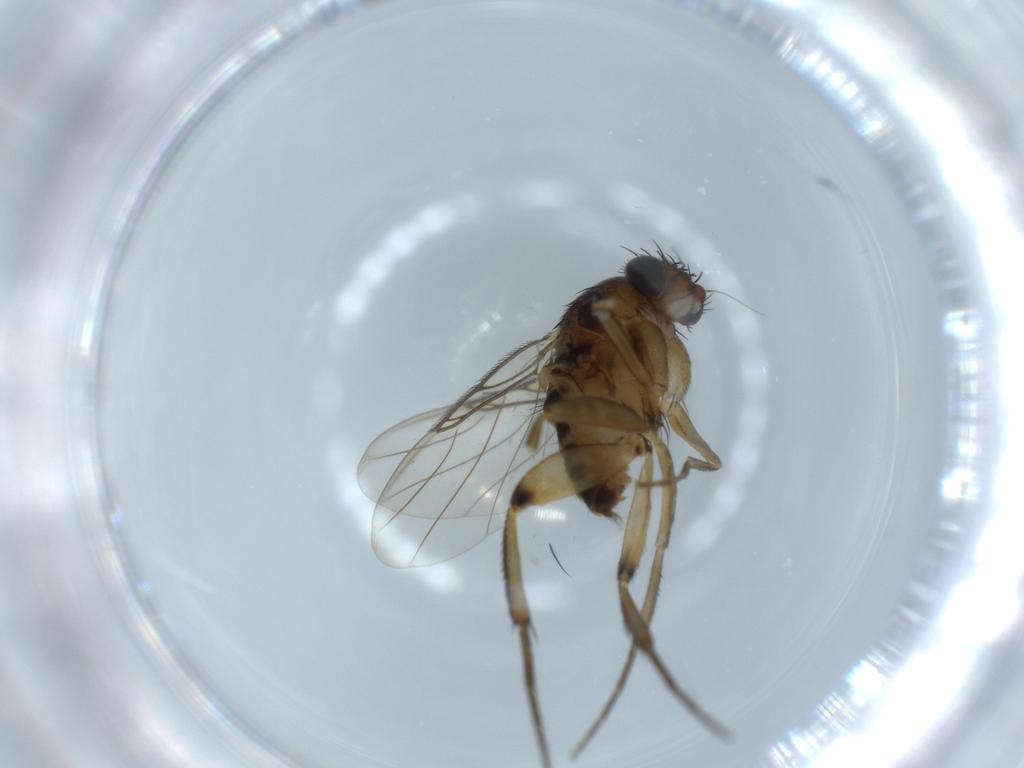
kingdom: Animalia
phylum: Arthropoda
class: Insecta
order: Diptera
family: Phoridae
